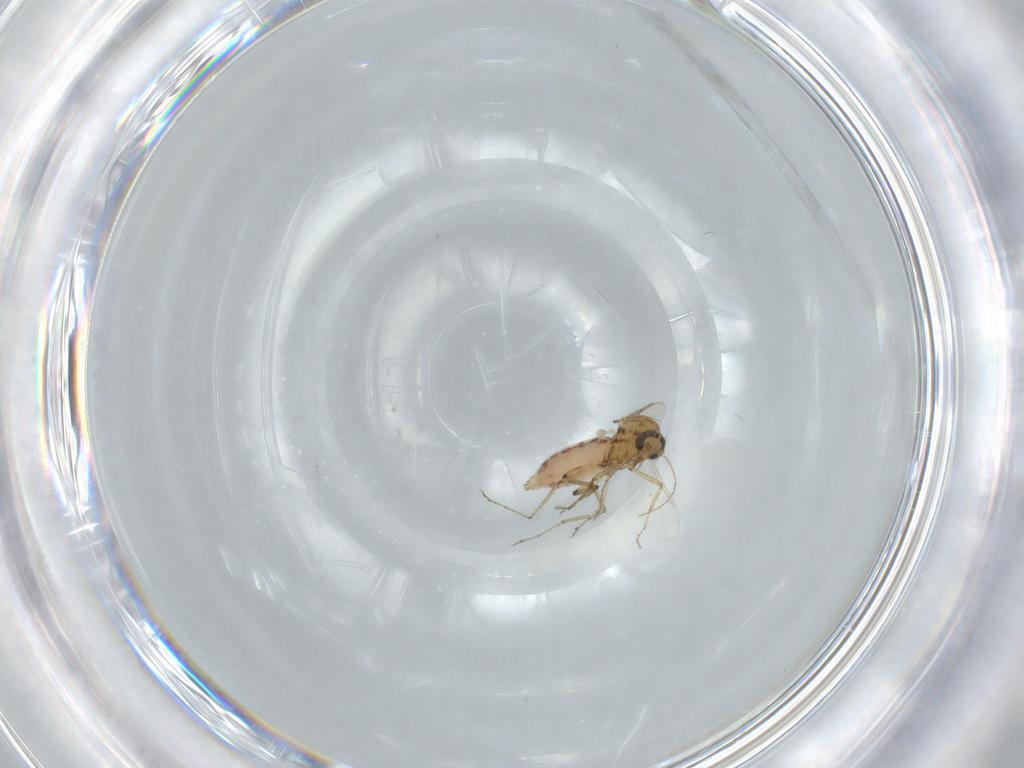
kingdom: Animalia
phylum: Arthropoda
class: Insecta
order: Diptera
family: Ceratopogonidae
